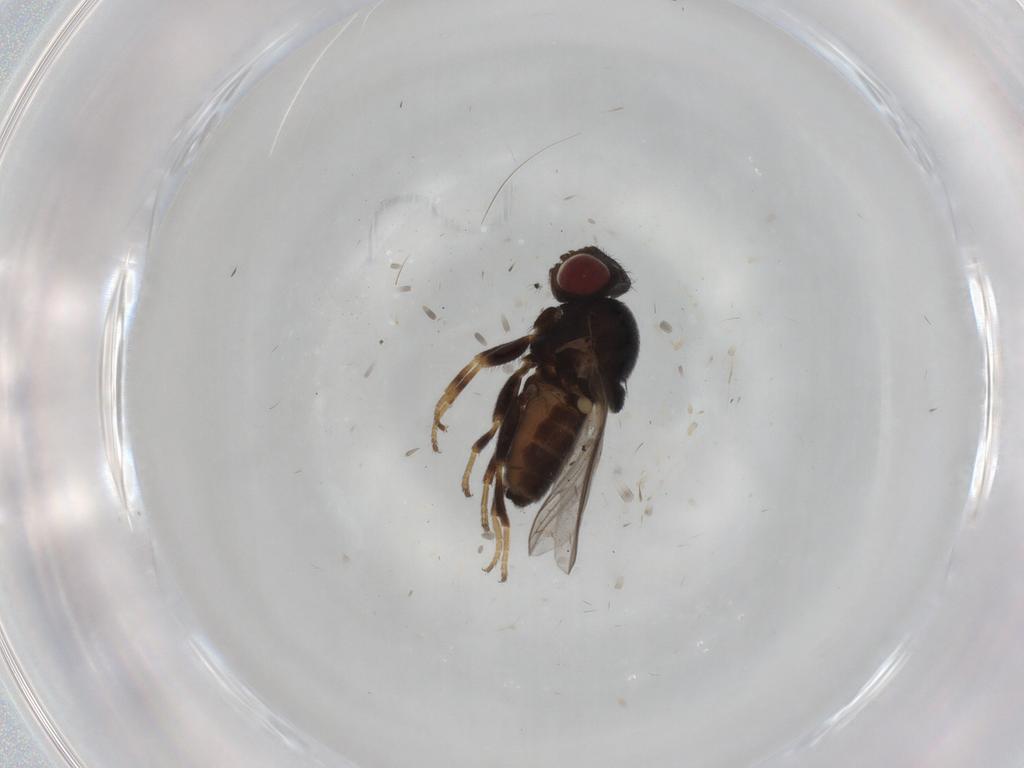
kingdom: Animalia
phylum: Arthropoda
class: Insecta
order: Diptera
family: Chloropidae
